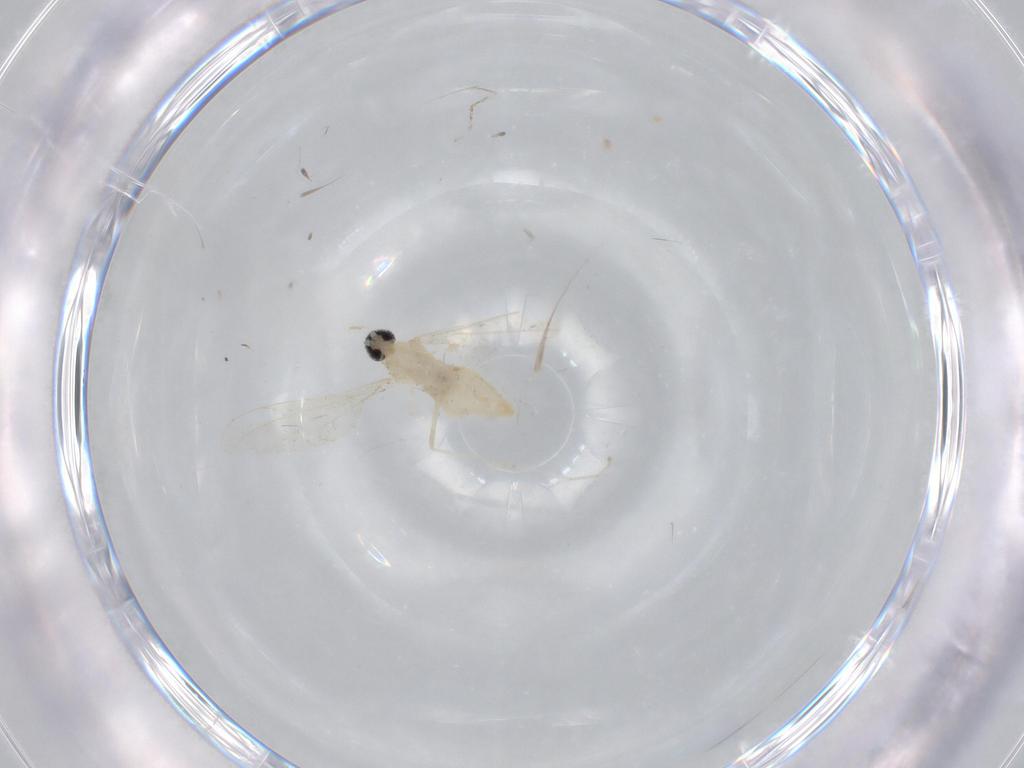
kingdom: Animalia
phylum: Arthropoda
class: Insecta
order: Diptera
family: Cecidomyiidae
